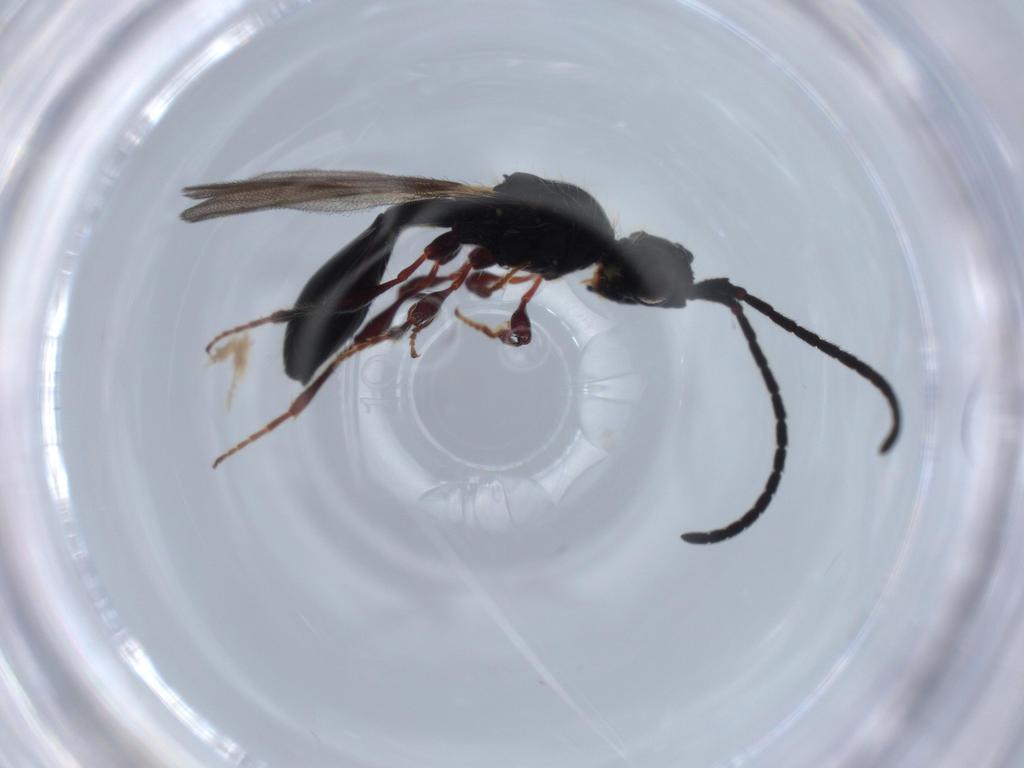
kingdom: Animalia
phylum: Arthropoda
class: Insecta
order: Hymenoptera
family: Diapriidae
